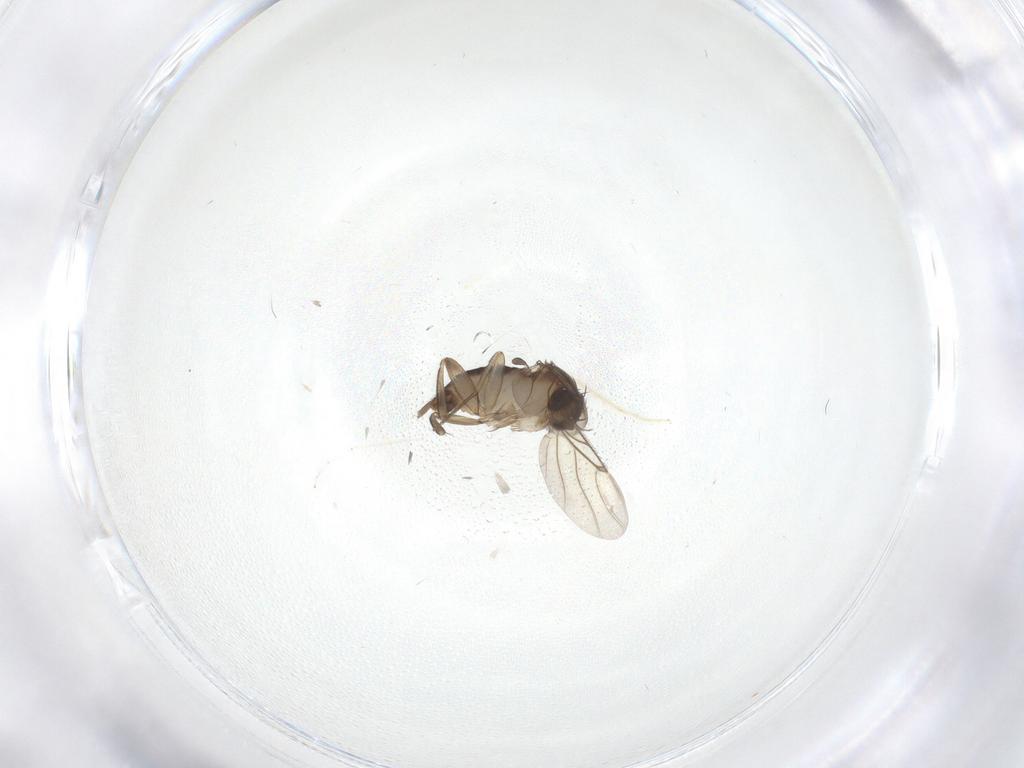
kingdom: Animalia
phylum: Arthropoda
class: Insecta
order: Diptera
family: Phoridae
